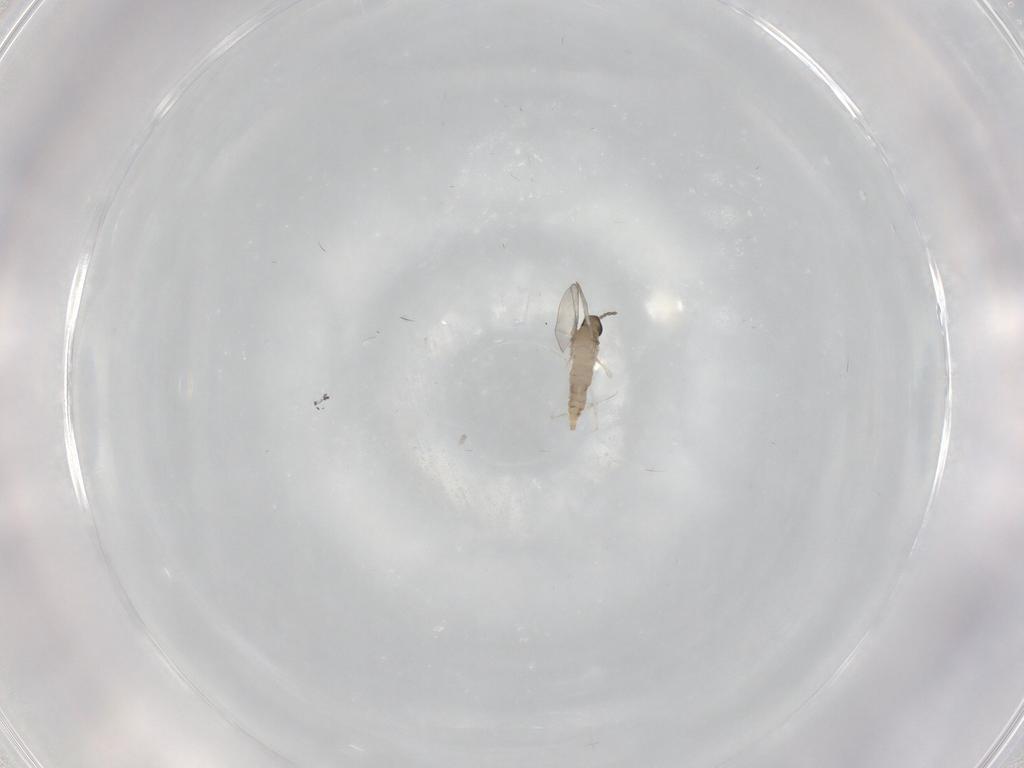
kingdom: Animalia
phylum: Arthropoda
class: Insecta
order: Diptera
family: Cecidomyiidae
